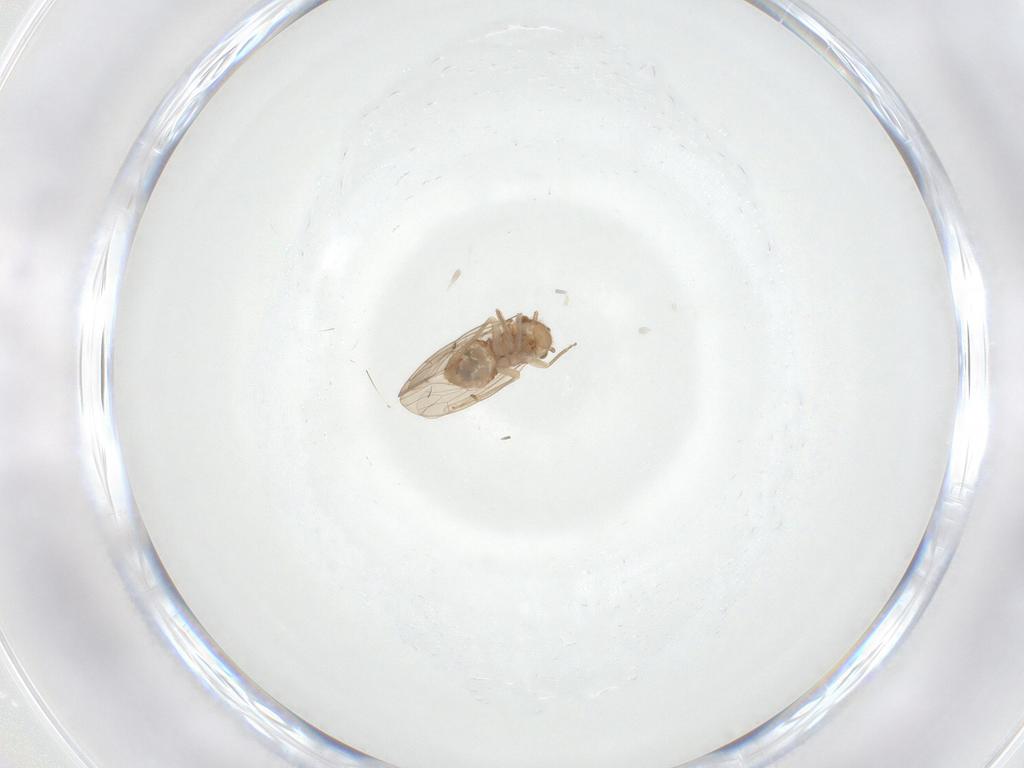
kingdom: Animalia
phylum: Arthropoda
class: Insecta
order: Psocodea
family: Ectopsocidae
